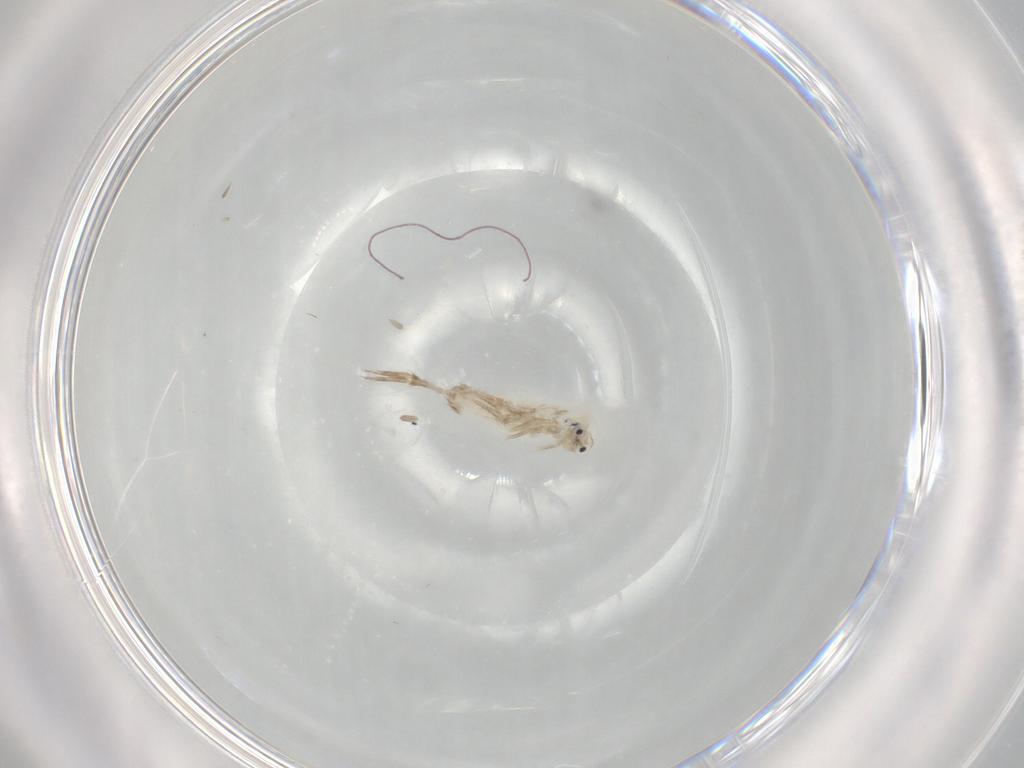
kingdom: Animalia
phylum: Arthropoda
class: Collembola
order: Entomobryomorpha
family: Entomobryidae
